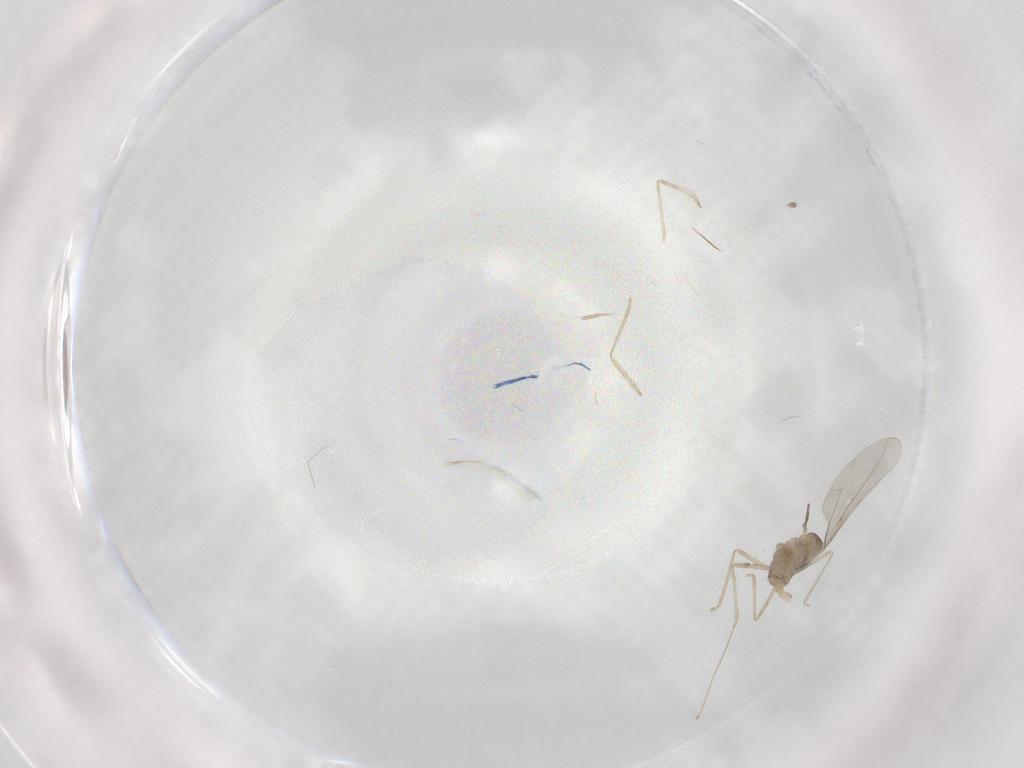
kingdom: Animalia
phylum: Arthropoda
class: Insecta
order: Diptera
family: Cecidomyiidae
